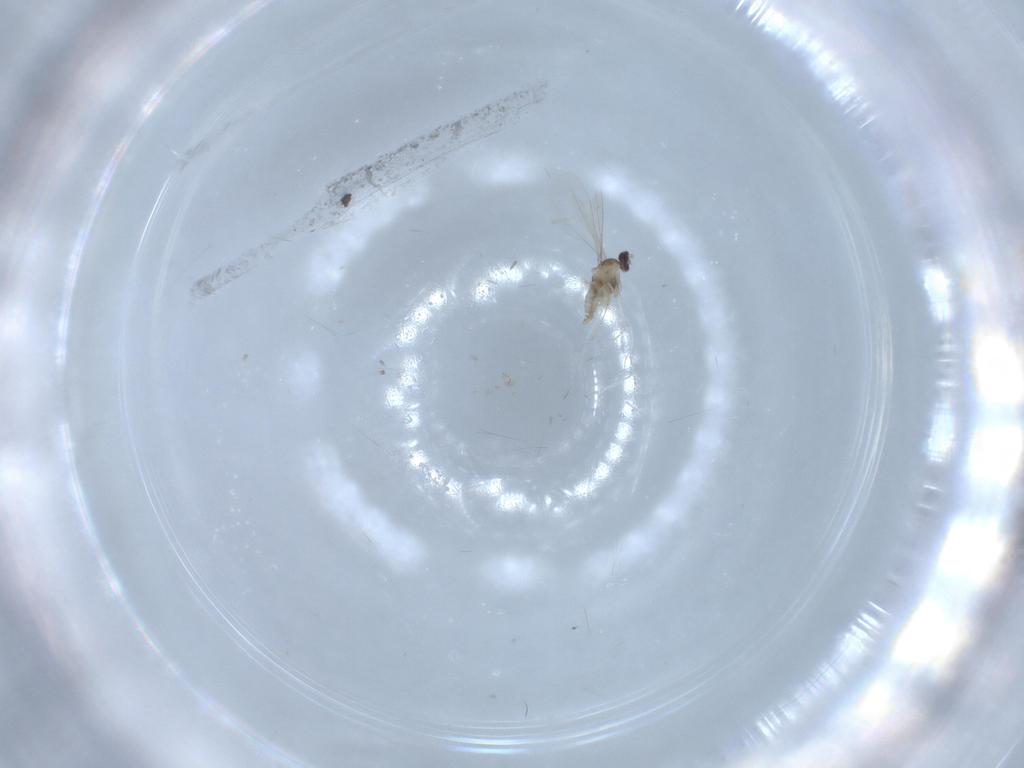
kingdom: Animalia
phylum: Arthropoda
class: Insecta
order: Diptera
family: Cecidomyiidae
